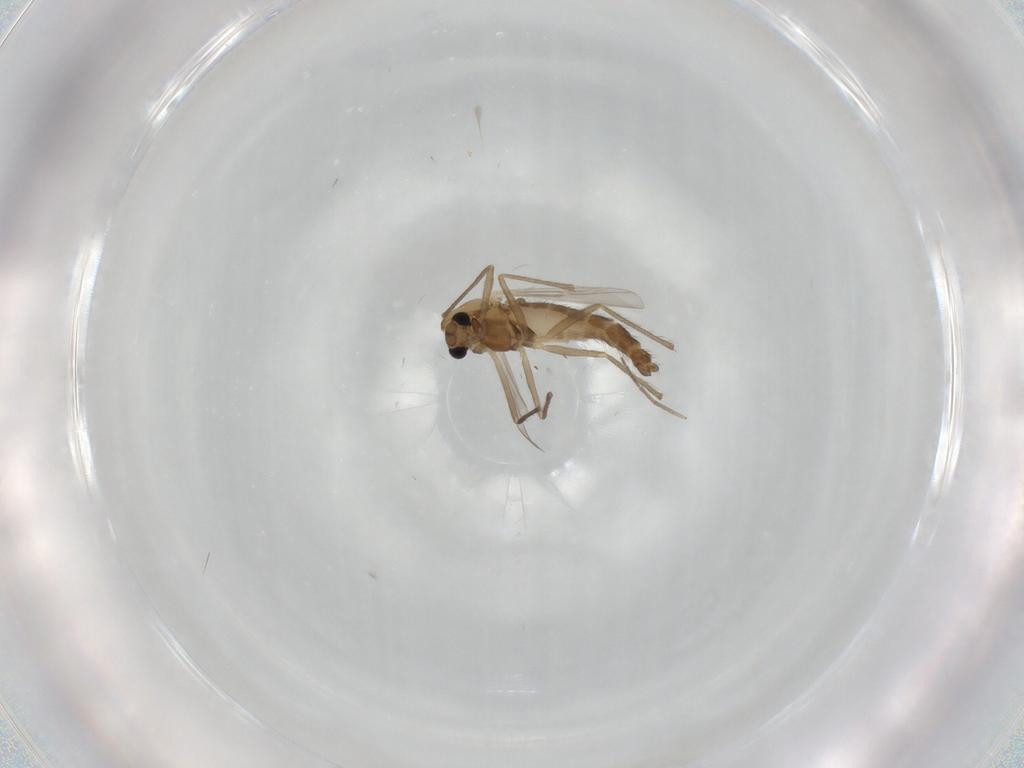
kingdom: Animalia
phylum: Arthropoda
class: Insecta
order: Diptera
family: Chironomidae
